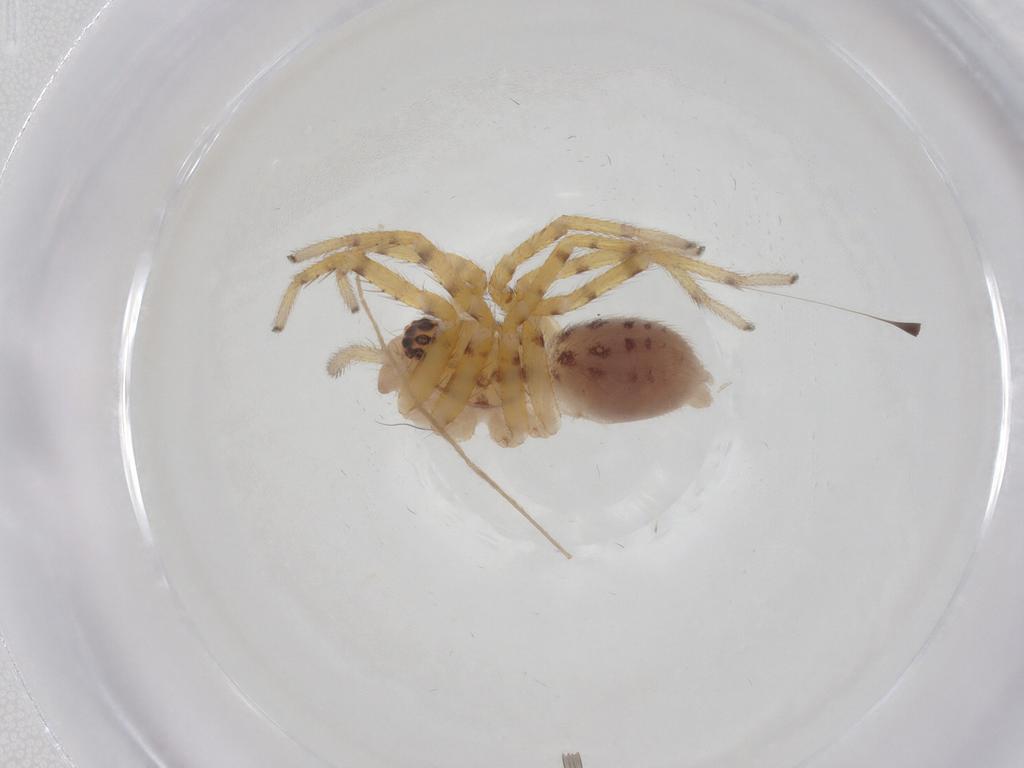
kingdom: Animalia
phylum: Arthropoda
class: Arachnida
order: Araneae
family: Corinnidae
